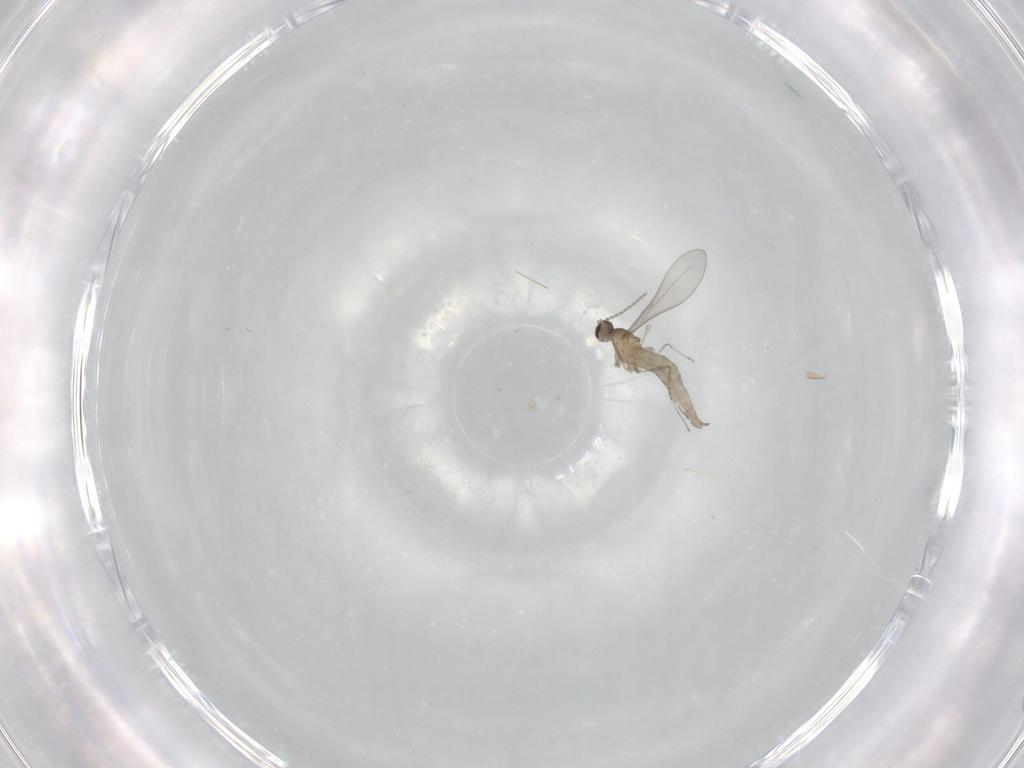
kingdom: Animalia
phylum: Arthropoda
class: Insecta
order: Diptera
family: Cecidomyiidae
